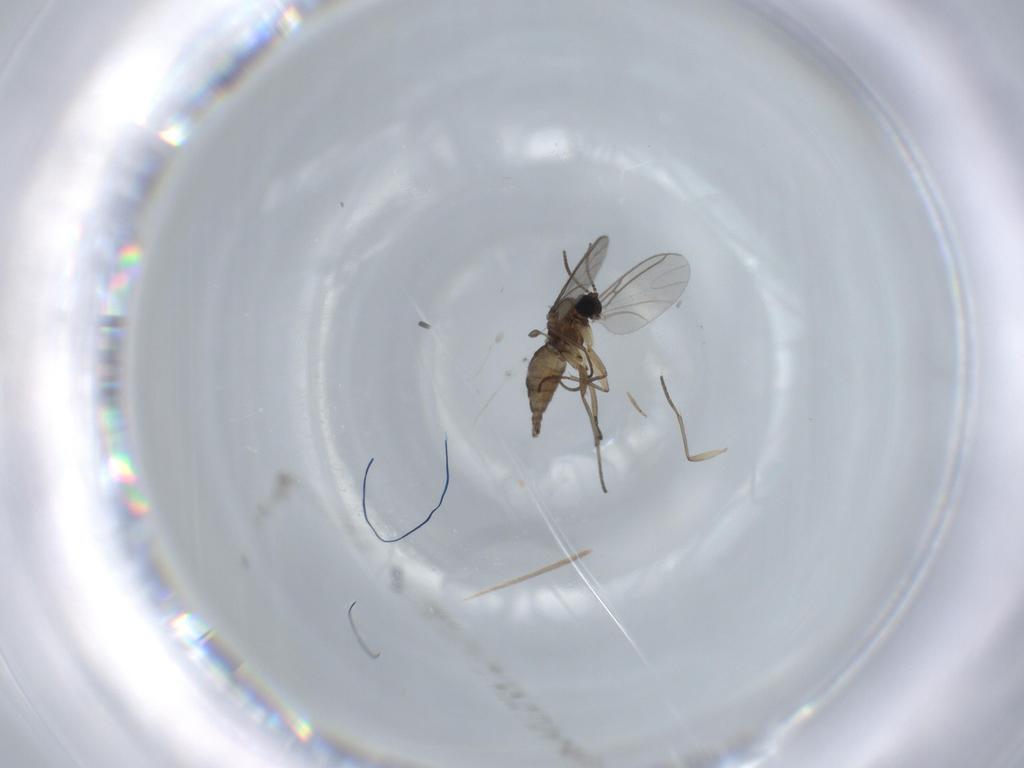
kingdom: Animalia
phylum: Arthropoda
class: Insecta
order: Diptera
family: Sciaridae
